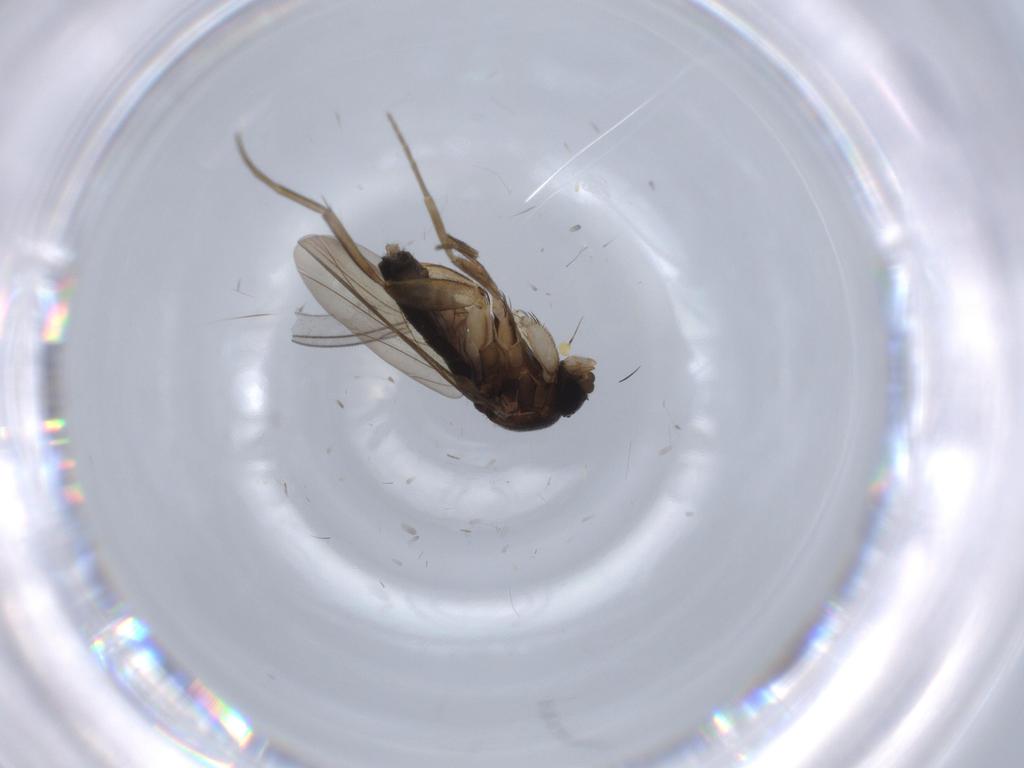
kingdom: Animalia
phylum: Arthropoda
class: Insecta
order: Diptera
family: Phoridae
